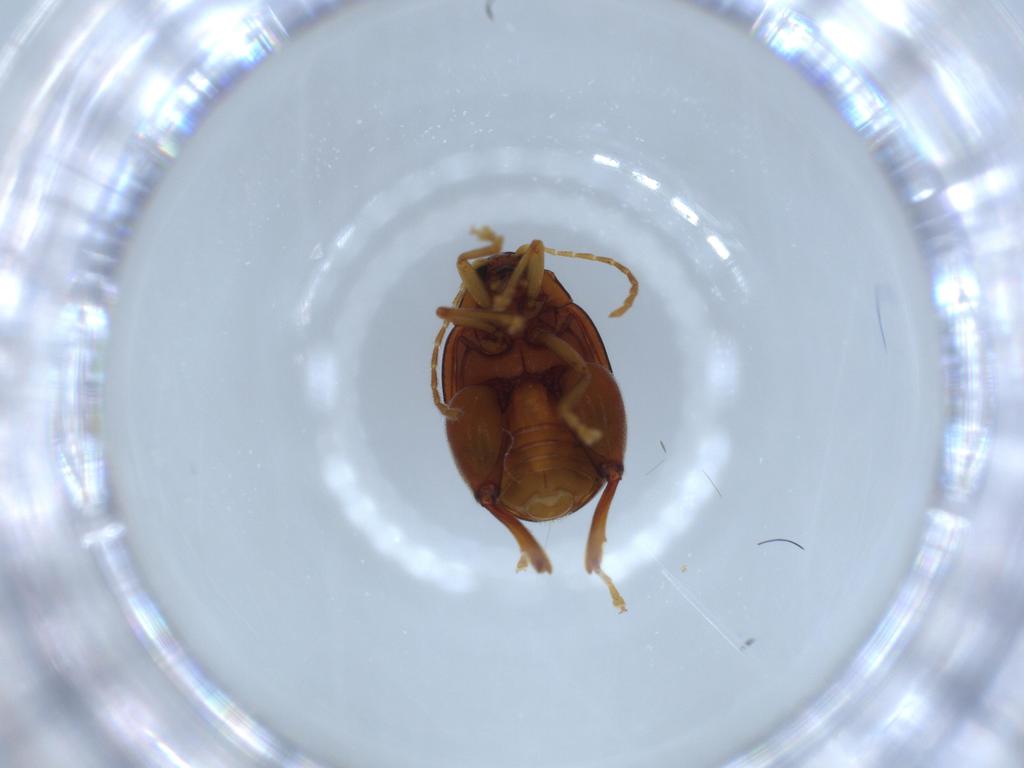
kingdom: Animalia
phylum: Arthropoda
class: Insecta
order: Coleoptera
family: Chrysomelidae
